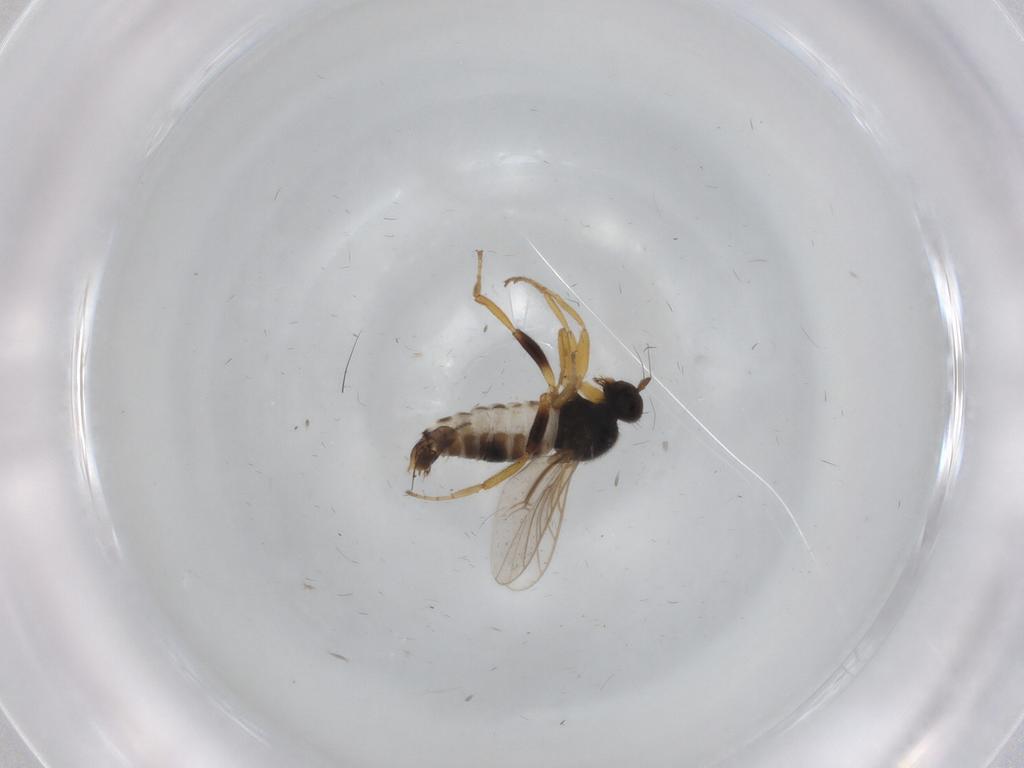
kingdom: Animalia
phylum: Arthropoda
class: Insecta
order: Diptera
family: Hybotidae
